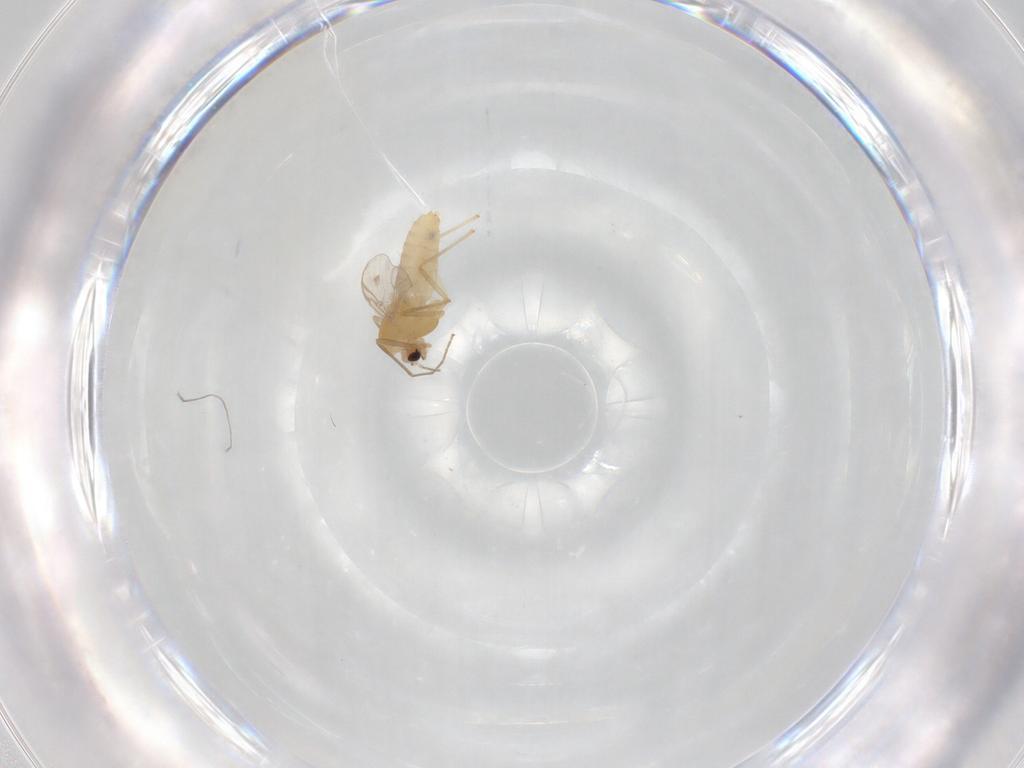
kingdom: Animalia
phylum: Arthropoda
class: Insecta
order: Diptera
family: Chironomidae
